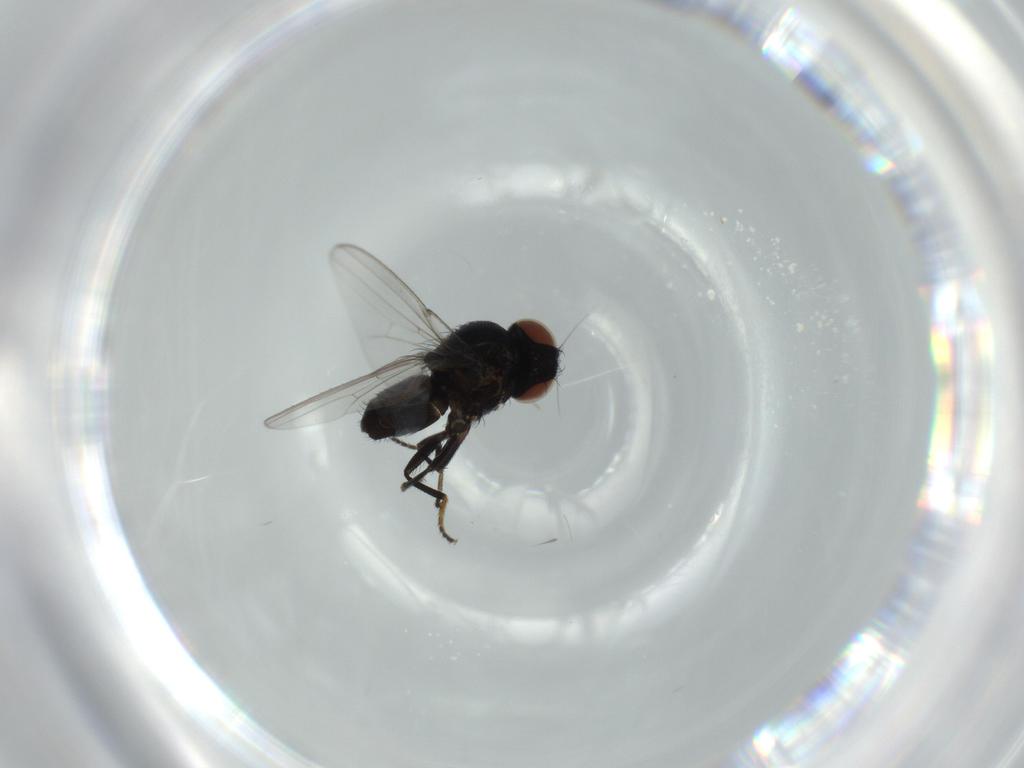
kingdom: Animalia
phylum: Arthropoda
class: Insecta
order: Diptera
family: Milichiidae
